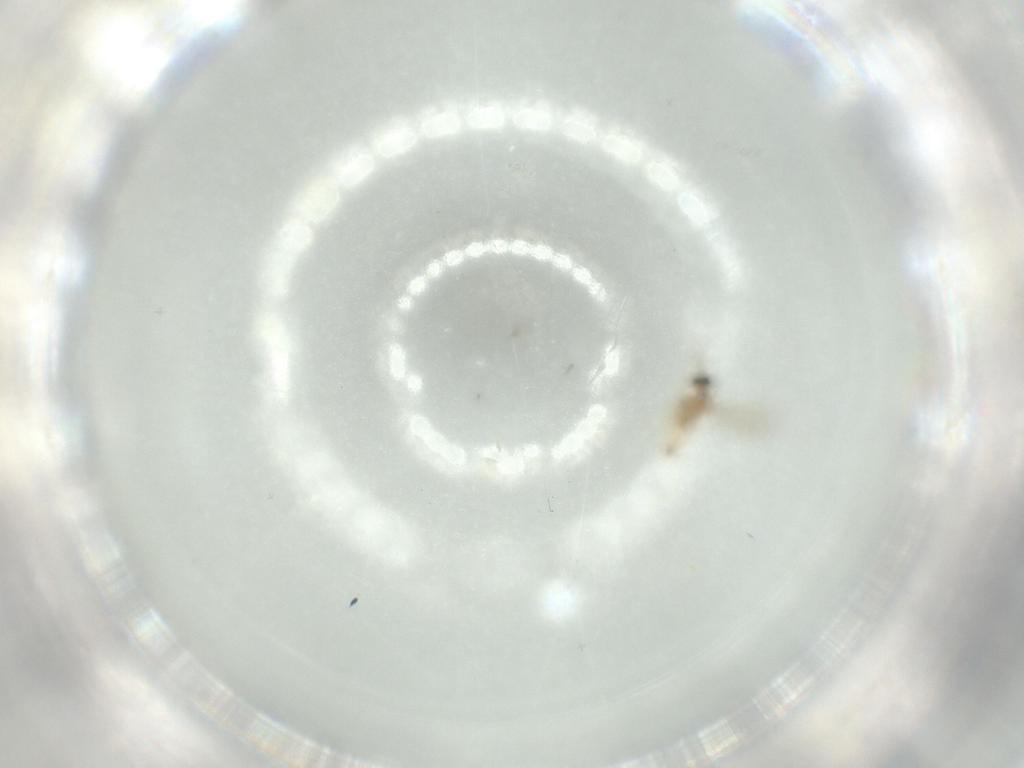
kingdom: Animalia
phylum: Arthropoda
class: Insecta
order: Diptera
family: Cecidomyiidae
